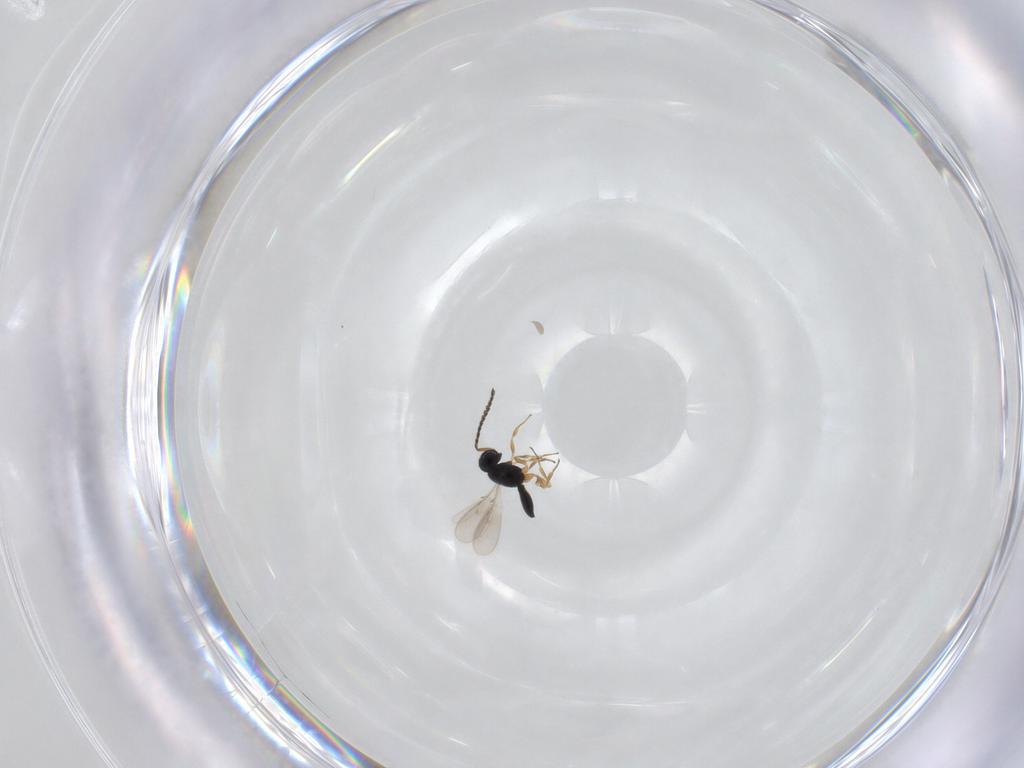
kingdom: Animalia
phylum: Arthropoda
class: Insecta
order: Hymenoptera
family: Scelionidae
